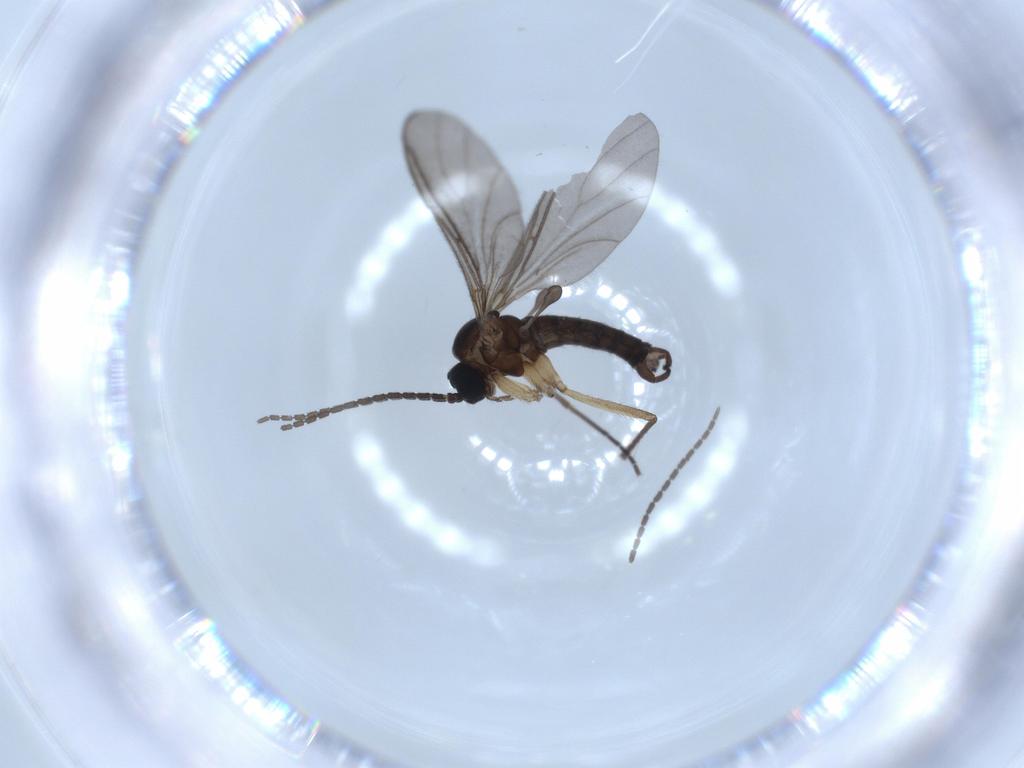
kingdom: Animalia
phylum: Arthropoda
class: Insecta
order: Diptera
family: Sciaridae
